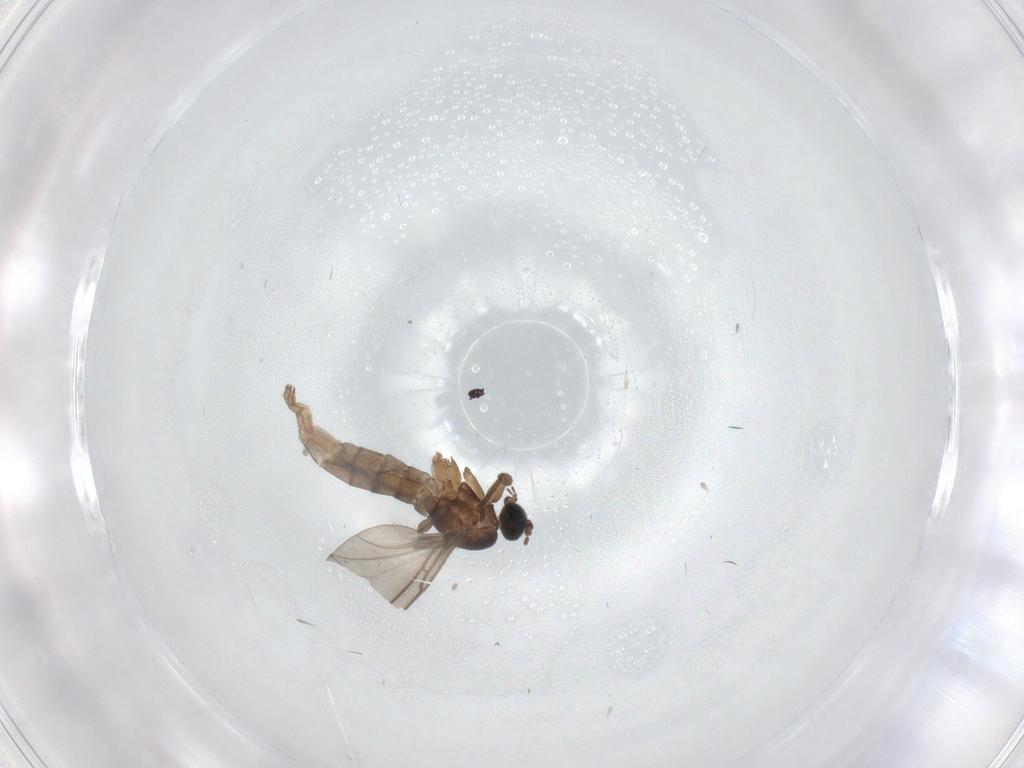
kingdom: Animalia
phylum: Arthropoda
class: Insecta
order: Diptera
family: Sciaridae
